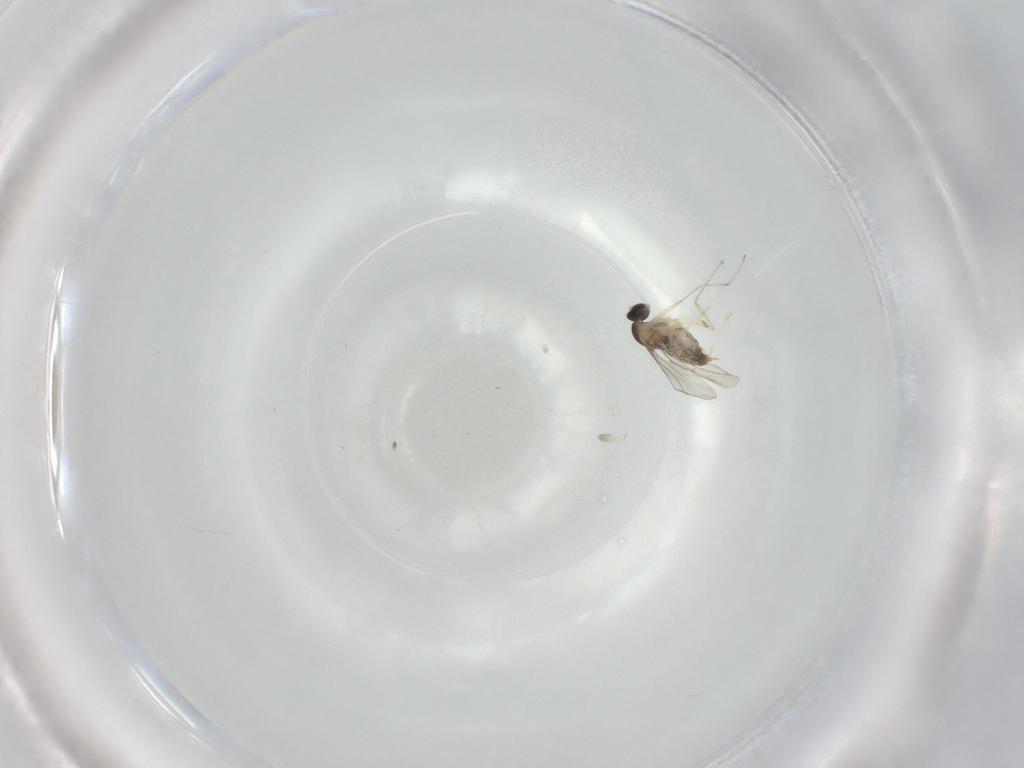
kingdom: Animalia
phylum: Arthropoda
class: Insecta
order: Diptera
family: Cecidomyiidae
